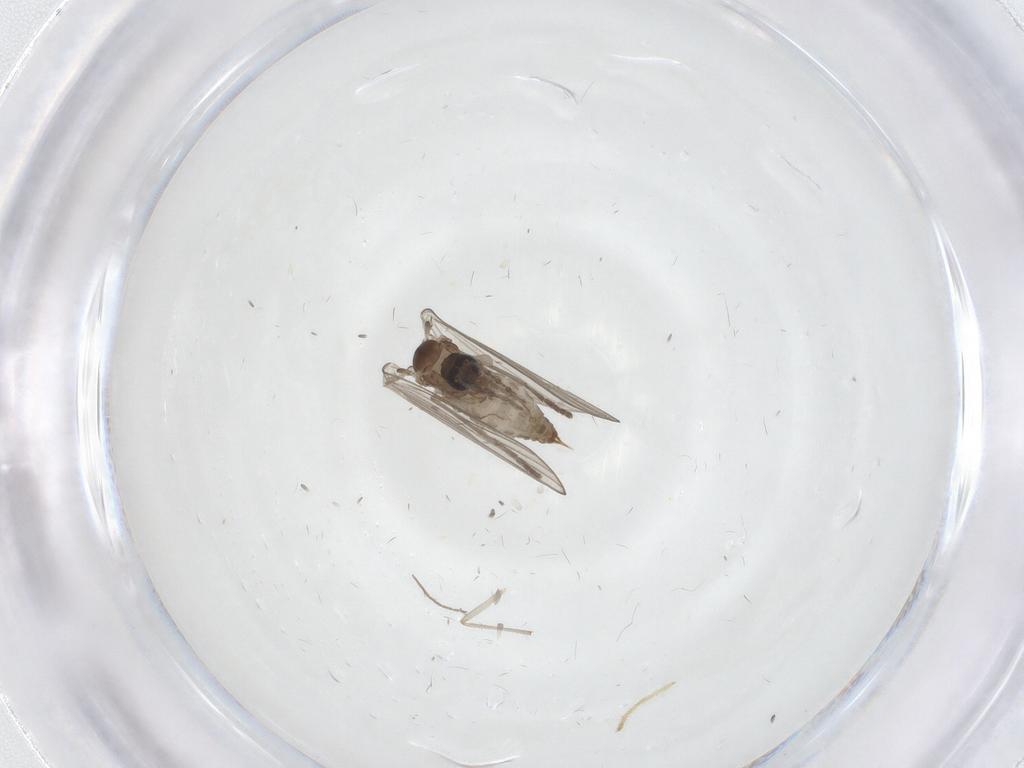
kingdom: Animalia
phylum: Arthropoda
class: Insecta
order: Diptera
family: Chironomidae
